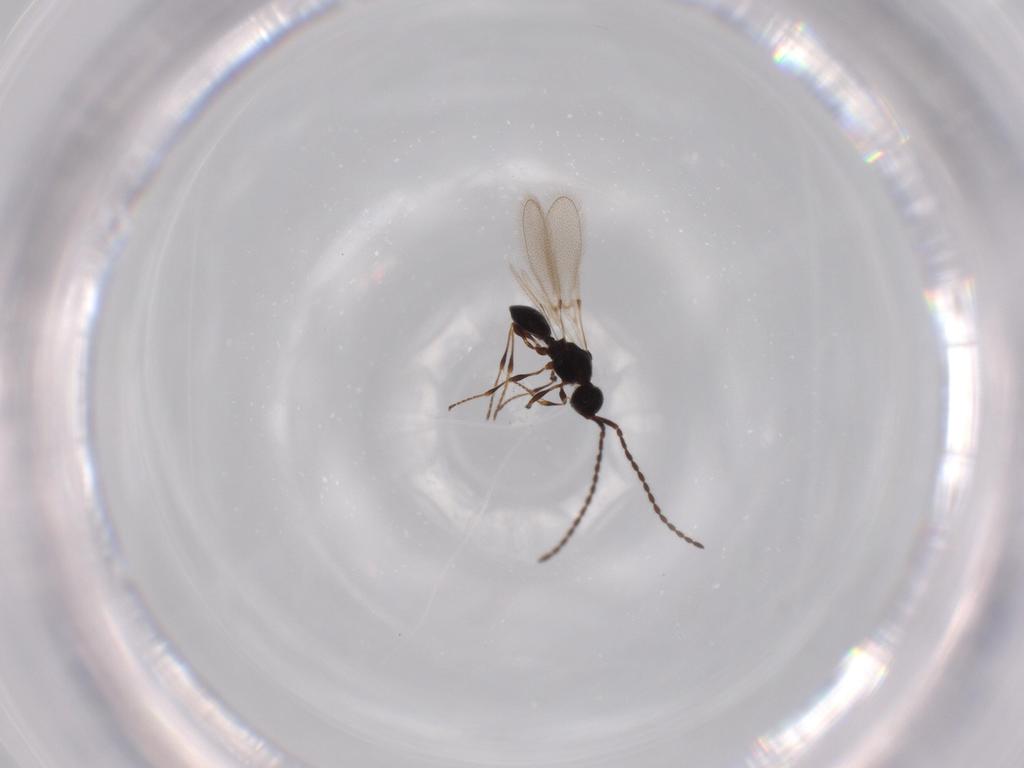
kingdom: Animalia
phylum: Arthropoda
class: Insecta
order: Hymenoptera
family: Diapriidae
